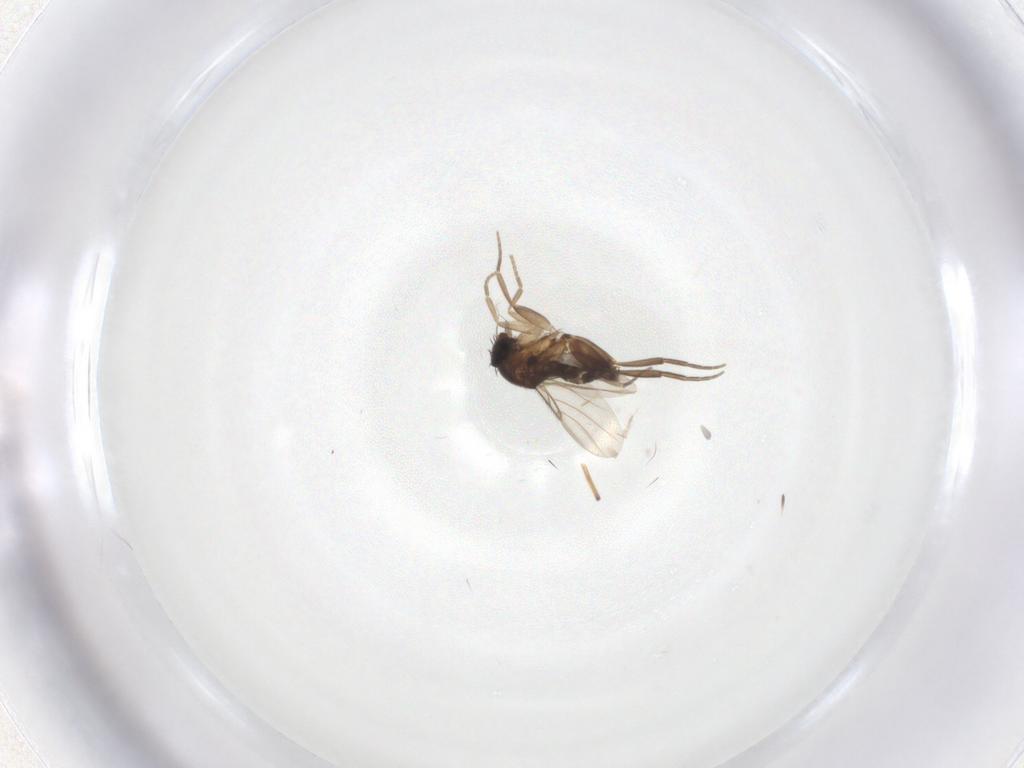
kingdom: Animalia
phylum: Arthropoda
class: Insecta
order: Diptera
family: Phoridae
